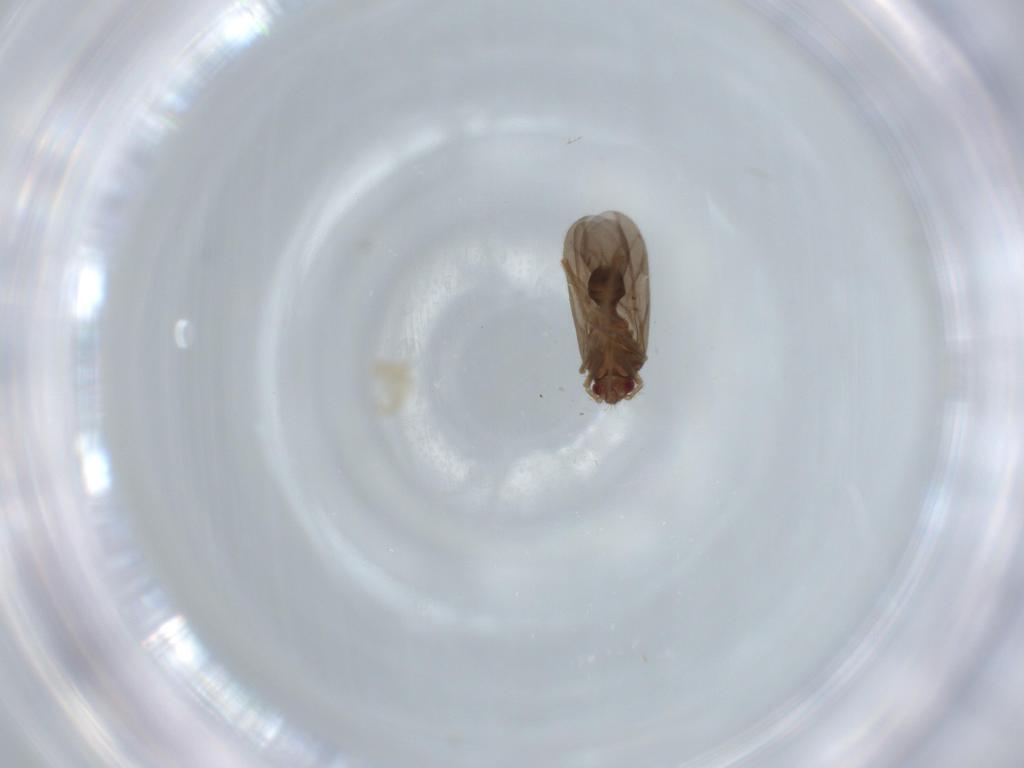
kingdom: Animalia
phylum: Arthropoda
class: Insecta
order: Hemiptera
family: Ceratocombidae
